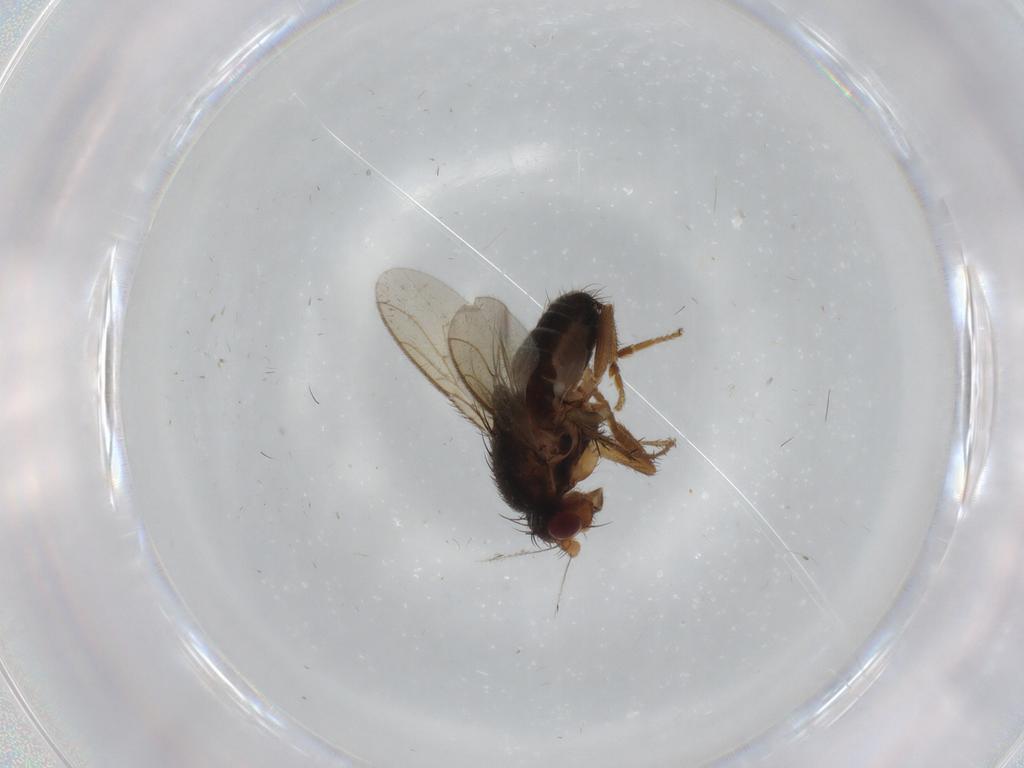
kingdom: Animalia
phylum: Arthropoda
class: Insecta
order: Diptera
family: Sphaeroceridae
